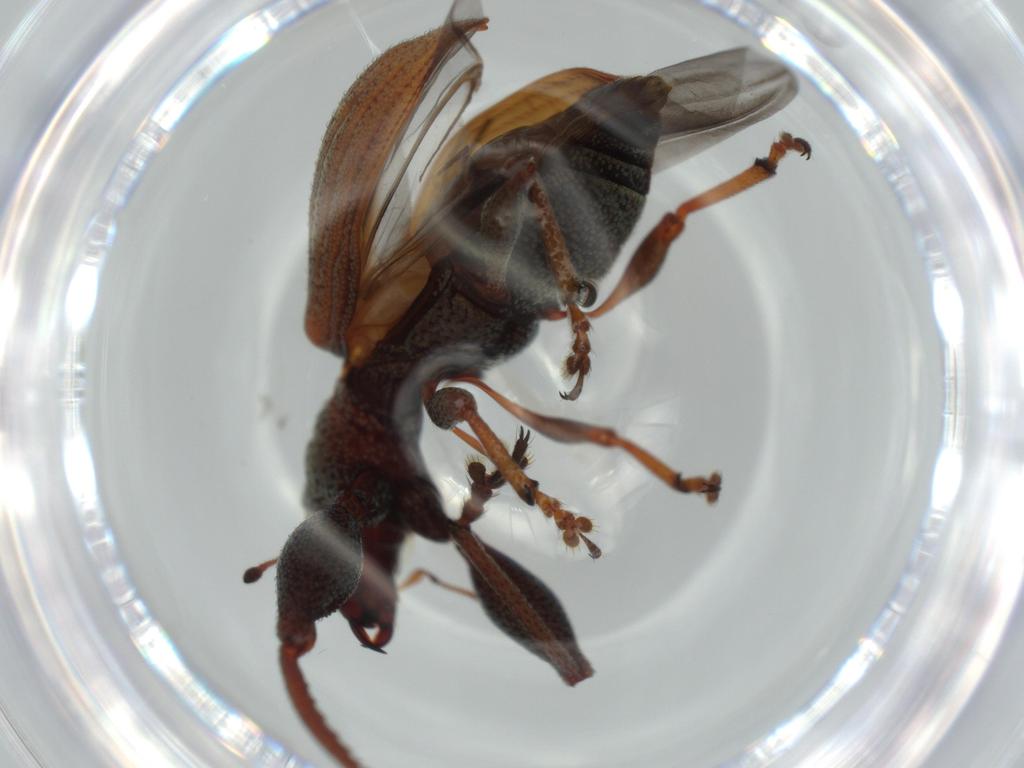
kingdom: Animalia
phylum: Arthropoda
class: Insecta
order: Coleoptera
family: Curculionidae
